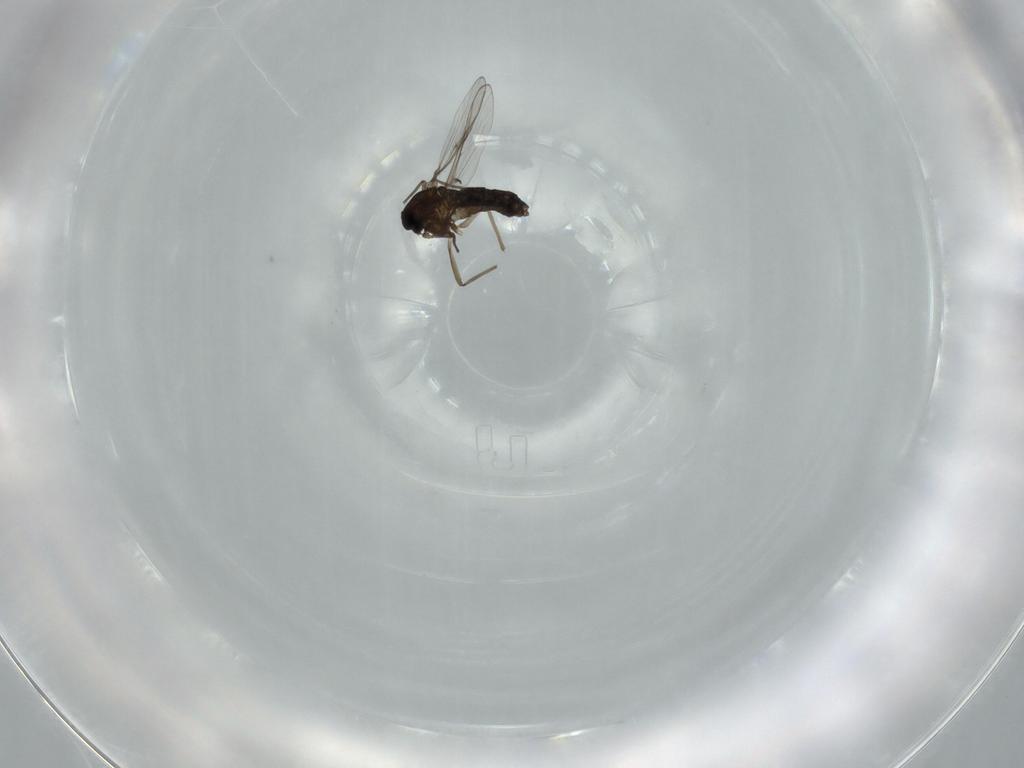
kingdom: Animalia
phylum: Arthropoda
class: Insecta
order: Diptera
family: Chironomidae
